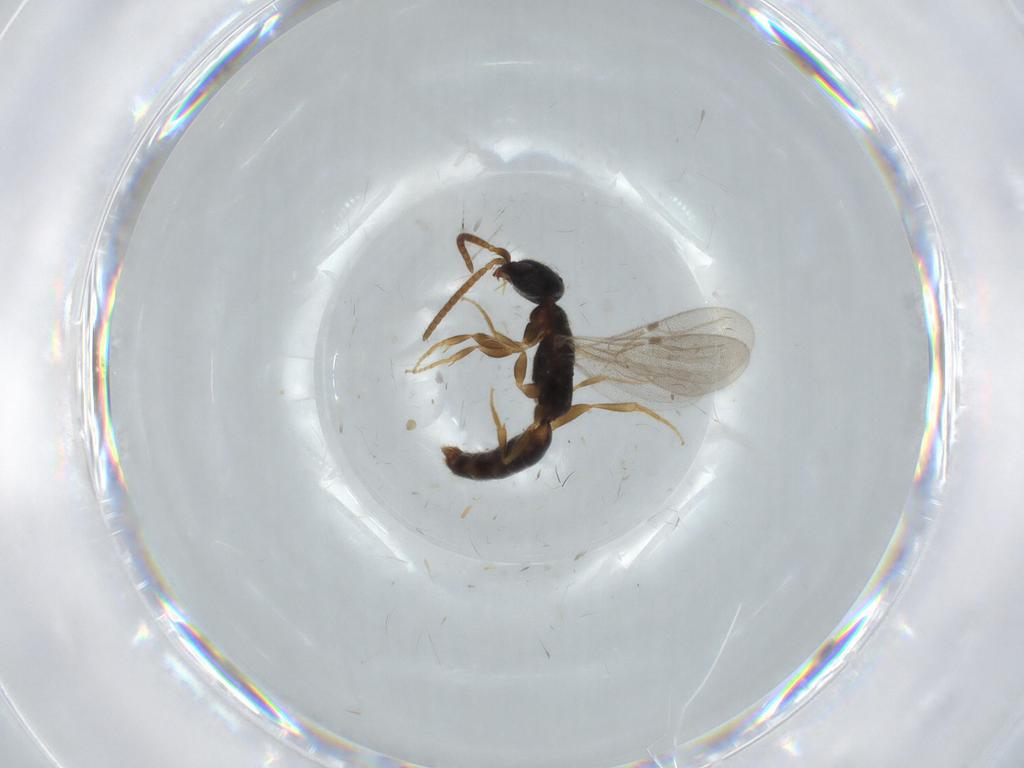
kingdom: Animalia
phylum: Arthropoda
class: Insecta
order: Hymenoptera
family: Bethylidae
